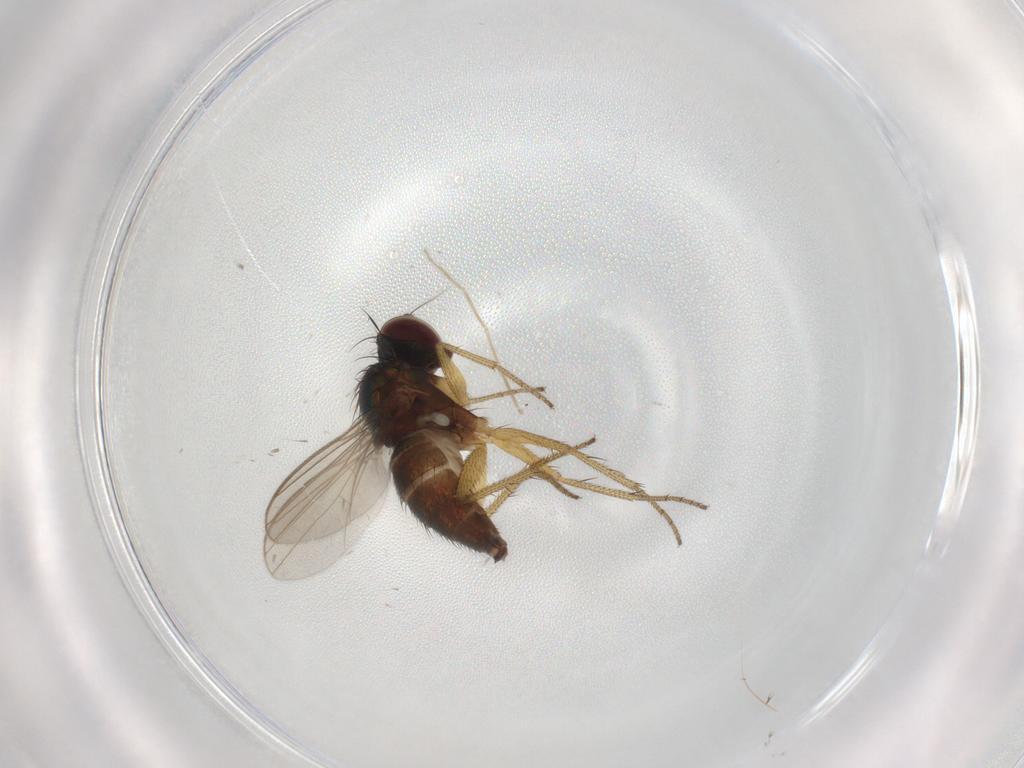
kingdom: Animalia
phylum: Arthropoda
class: Insecta
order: Diptera
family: Chironomidae
